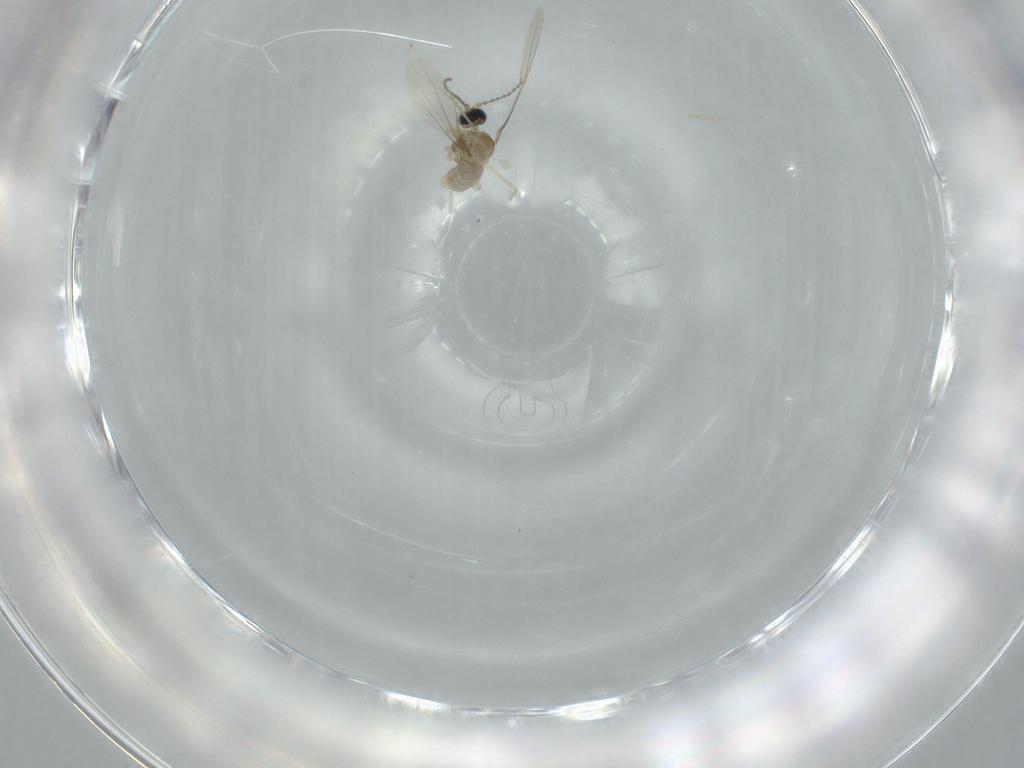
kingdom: Animalia
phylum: Arthropoda
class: Insecta
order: Diptera
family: Cecidomyiidae
